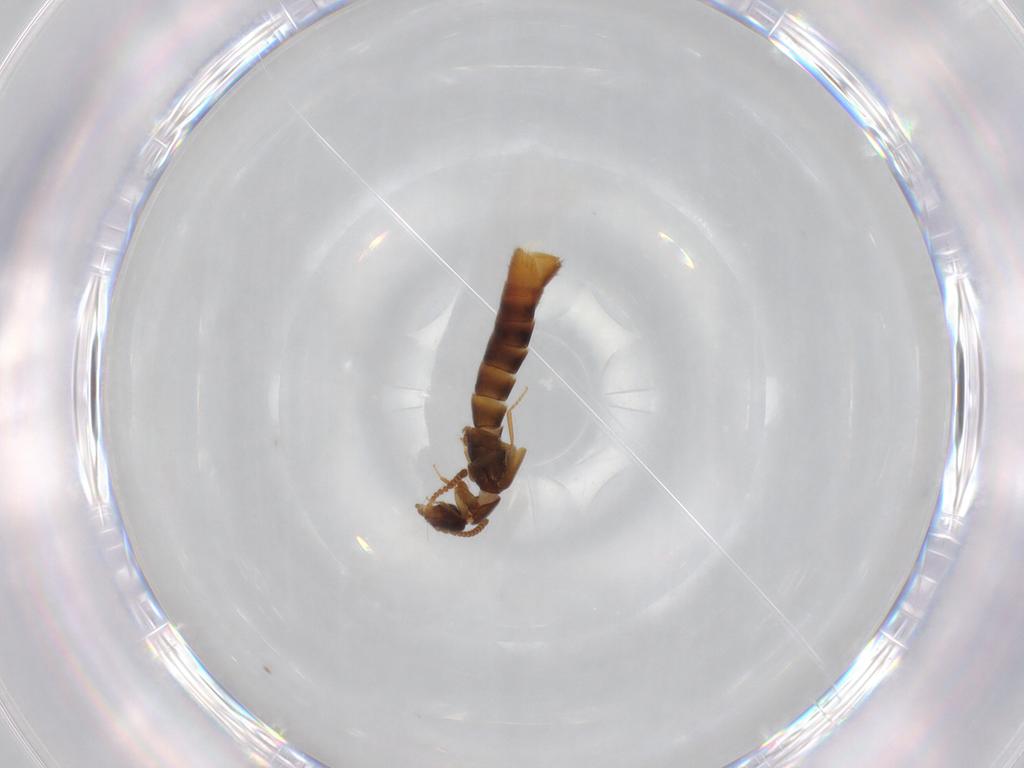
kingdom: Animalia
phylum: Arthropoda
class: Insecta
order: Coleoptera
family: Staphylinidae
